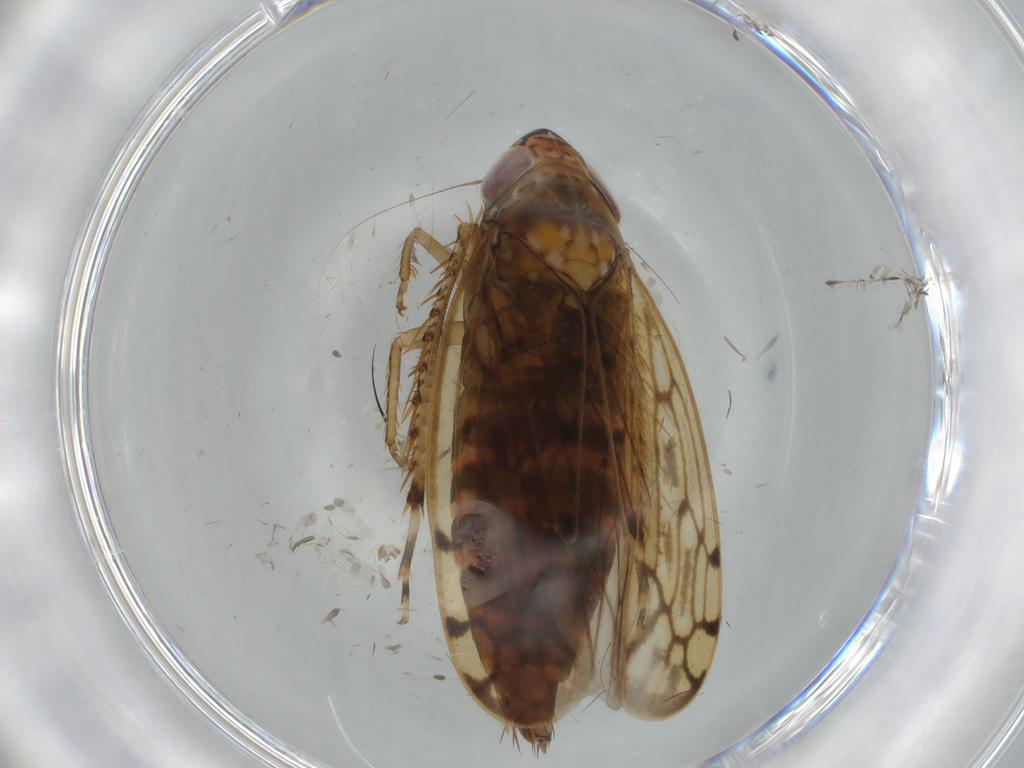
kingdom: Animalia
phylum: Arthropoda
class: Insecta
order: Hemiptera
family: Cicadellidae
